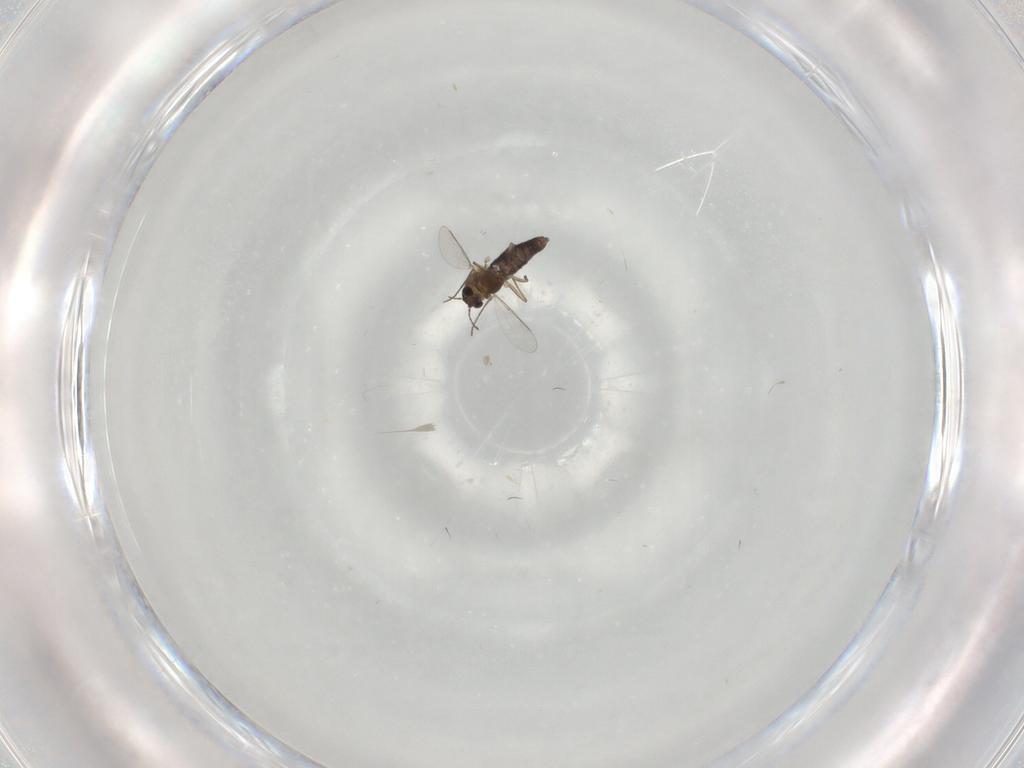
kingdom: Animalia
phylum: Arthropoda
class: Insecta
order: Diptera
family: Chironomidae
